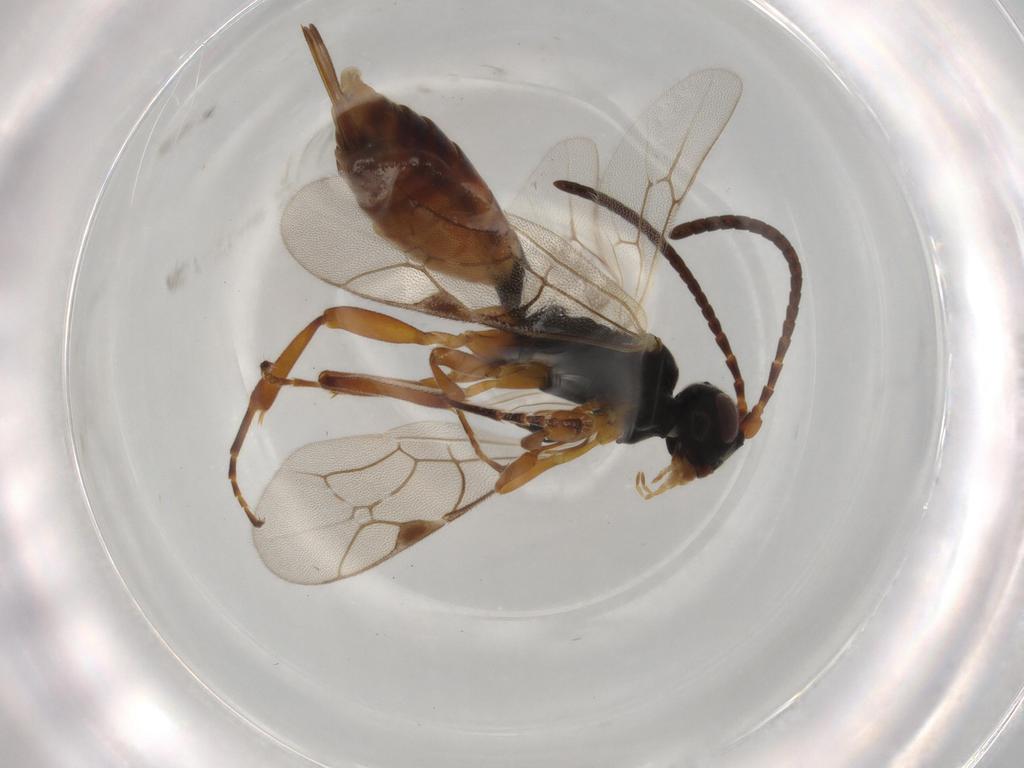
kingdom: Animalia
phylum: Arthropoda
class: Insecta
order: Hymenoptera
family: Ichneumonidae
